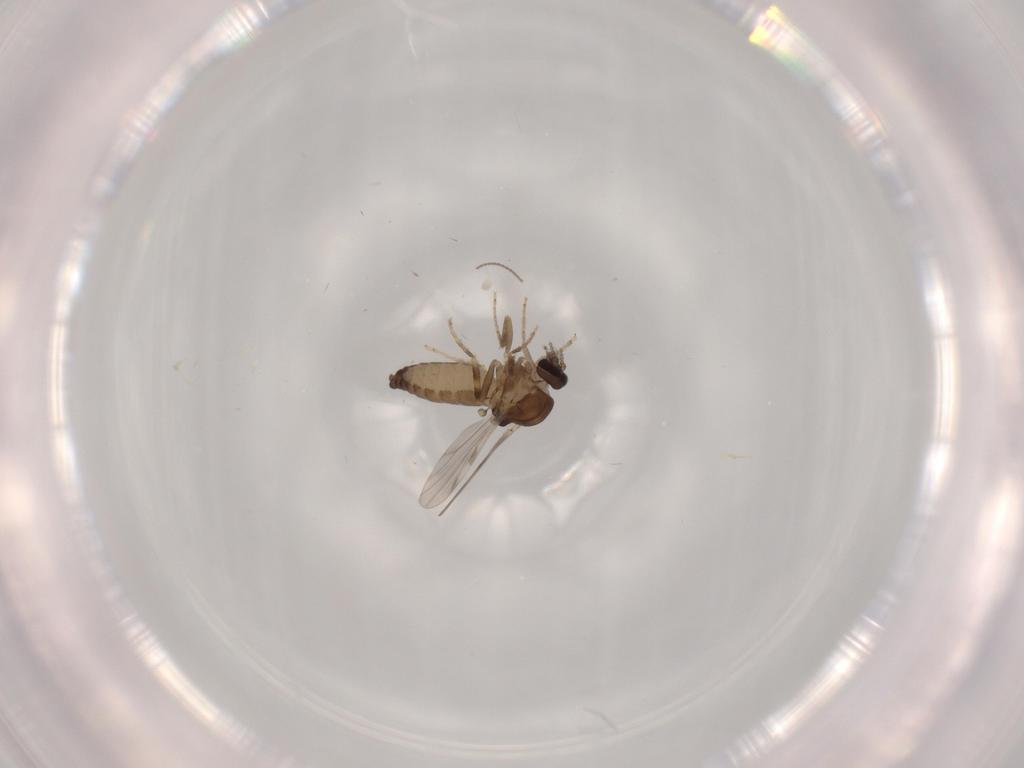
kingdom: Animalia
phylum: Arthropoda
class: Insecta
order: Diptera
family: Ceratopogonidae
